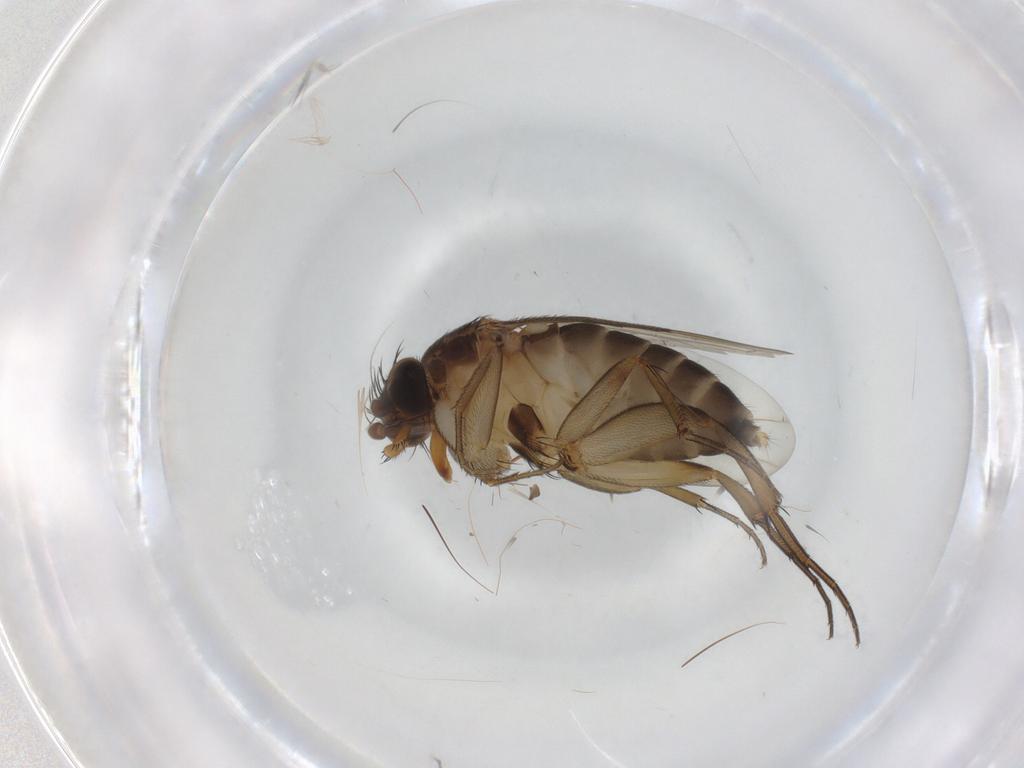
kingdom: Animalia
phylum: Arthropoda
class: Insecta
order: Diptera
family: Phoridae
